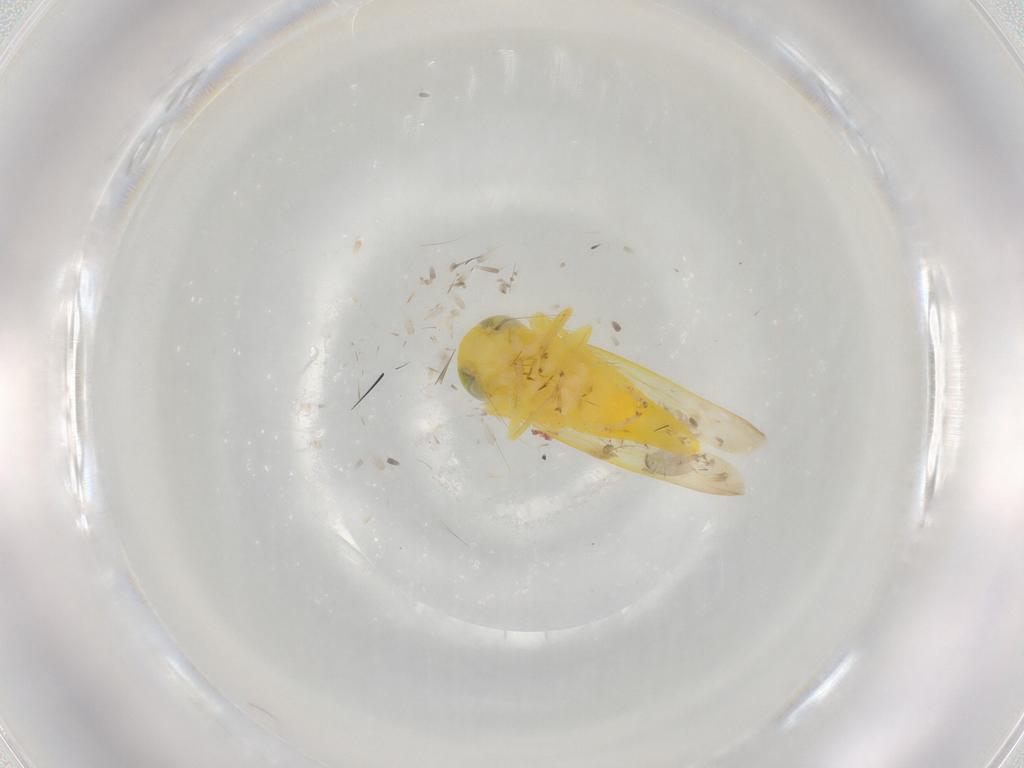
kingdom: Animalia
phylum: Arthropoda
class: Insecta
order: Hemiptera
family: Cicadellidae
